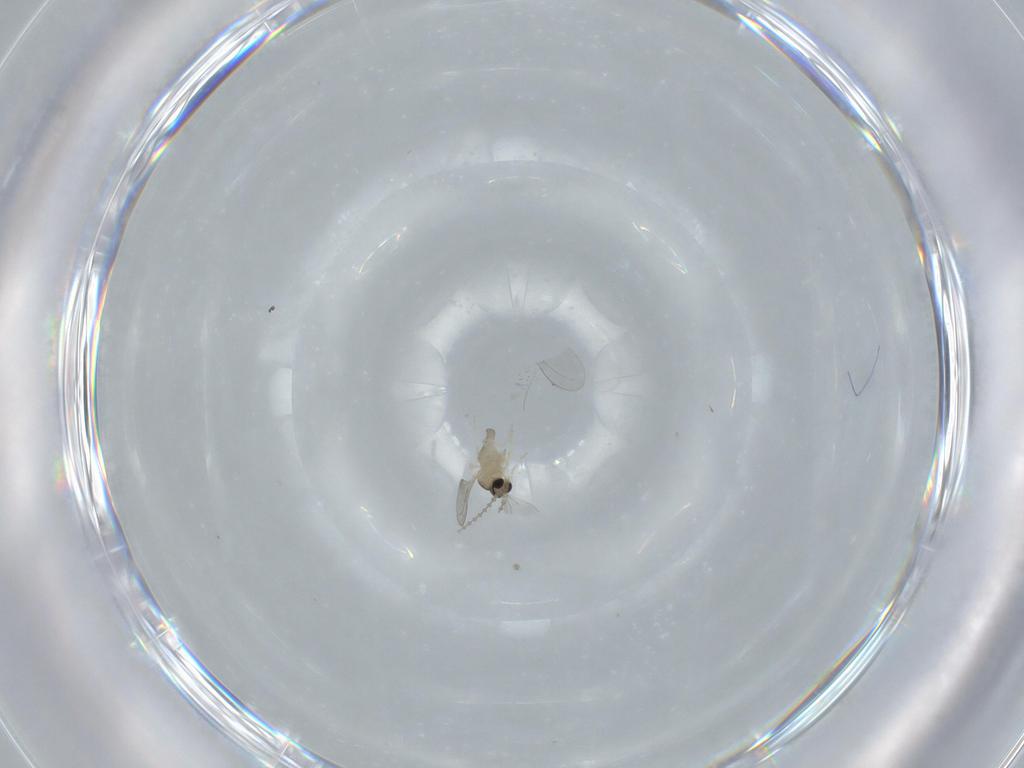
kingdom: Animalia
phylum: Arthropoda
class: Insecta
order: Diptera
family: Cecidomyiidae
